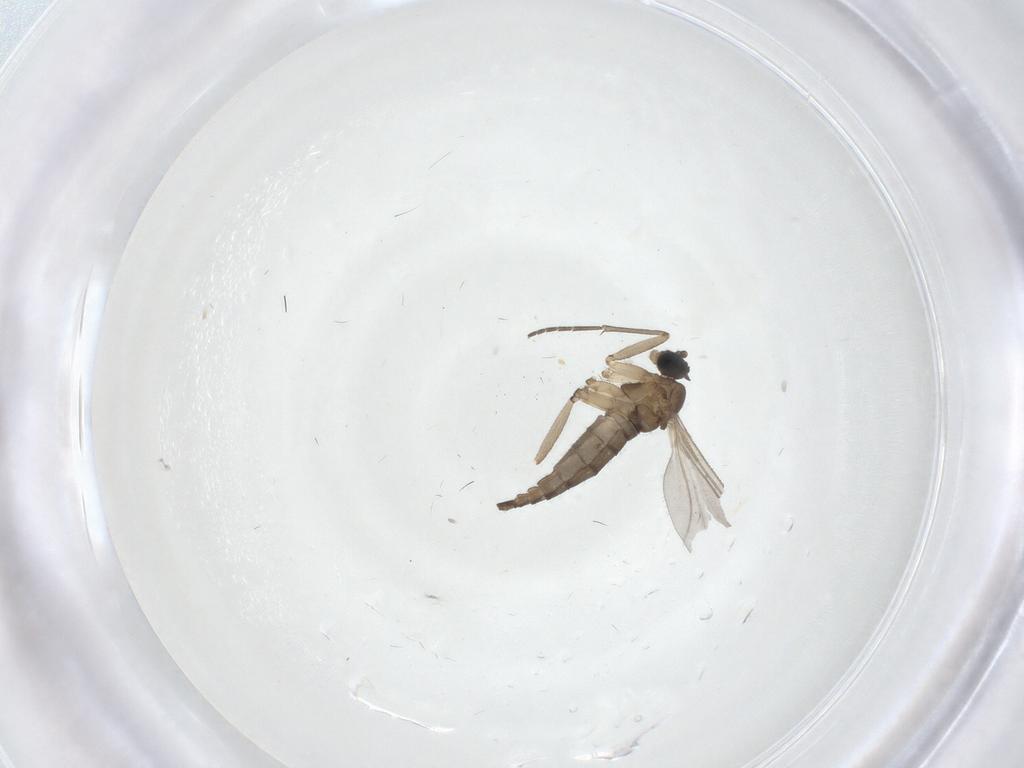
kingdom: Animalia
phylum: Arthropoda
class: Insecta
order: Diptera
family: Sciaridae
